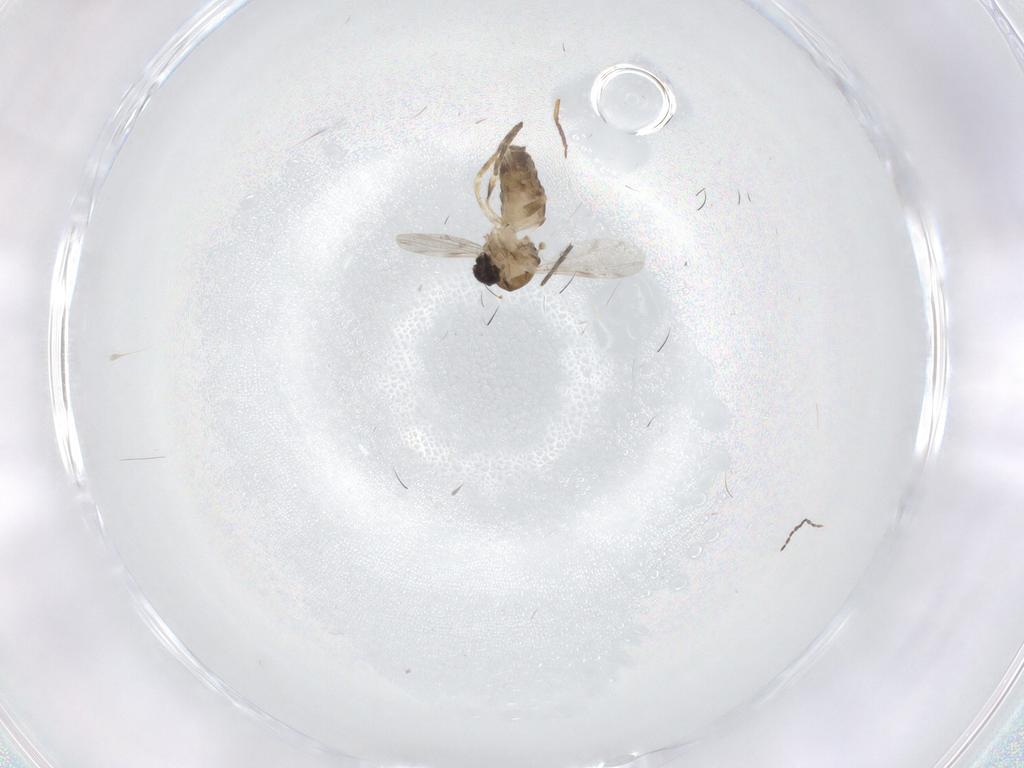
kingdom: Animalia
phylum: Arthropoda
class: Insecta
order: Diptera
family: Ceratopogonidae
